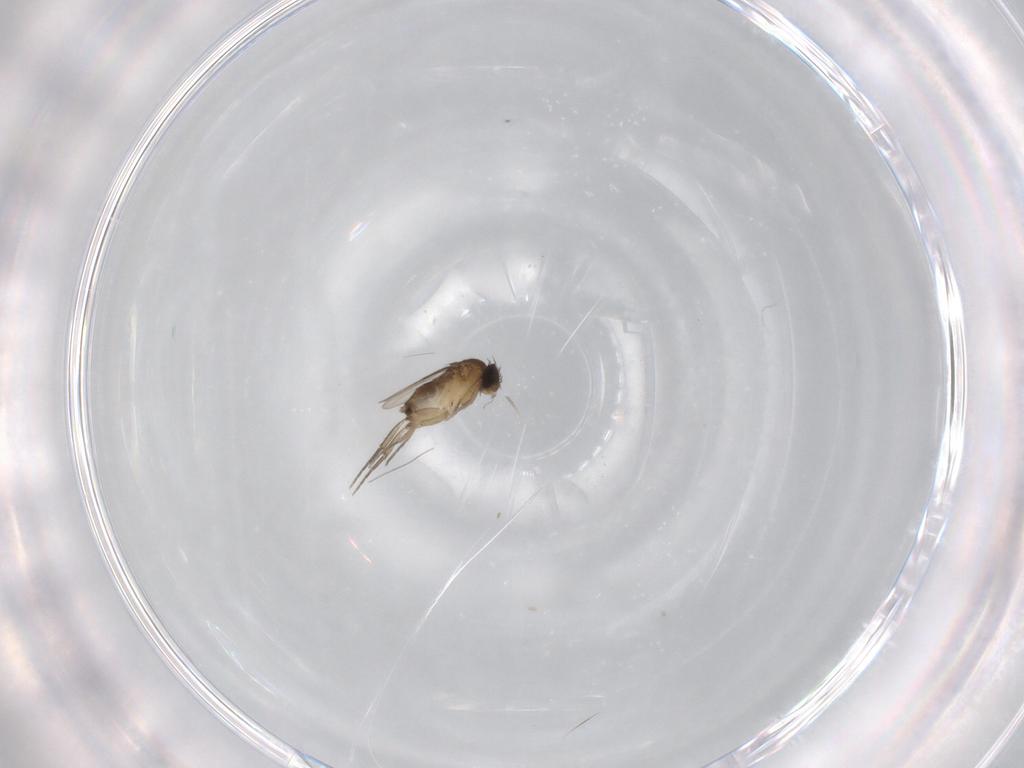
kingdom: Animalia
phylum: Arthropoda
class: Insecta
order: Diptera
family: Phoridae
